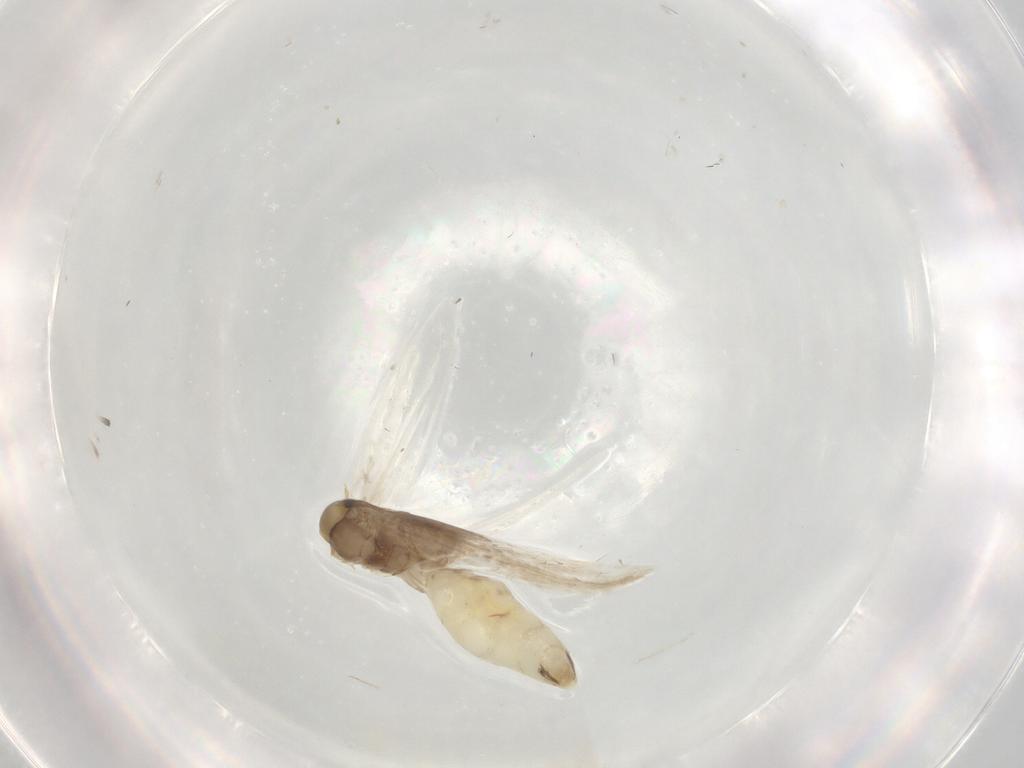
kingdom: Animalia
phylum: Arthropoda
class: Insecta
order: Lepidoptera
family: Gracillariidae
